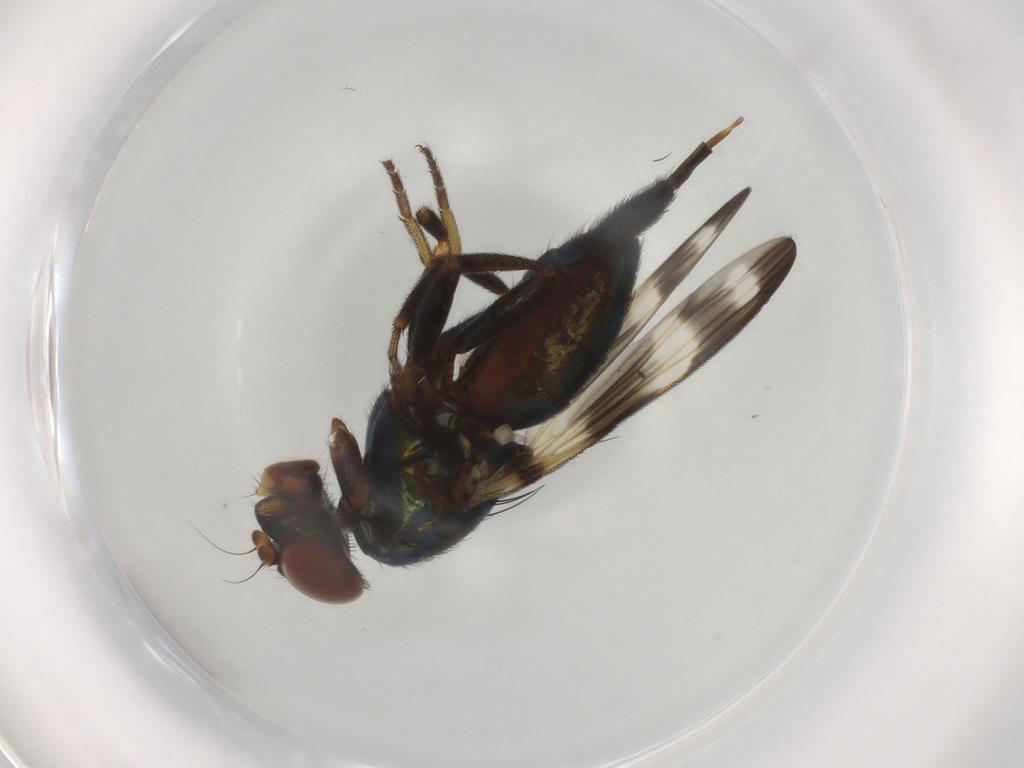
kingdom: Animalia
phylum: Arthropoda
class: Insecta
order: Diptera
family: Ulidiidae
